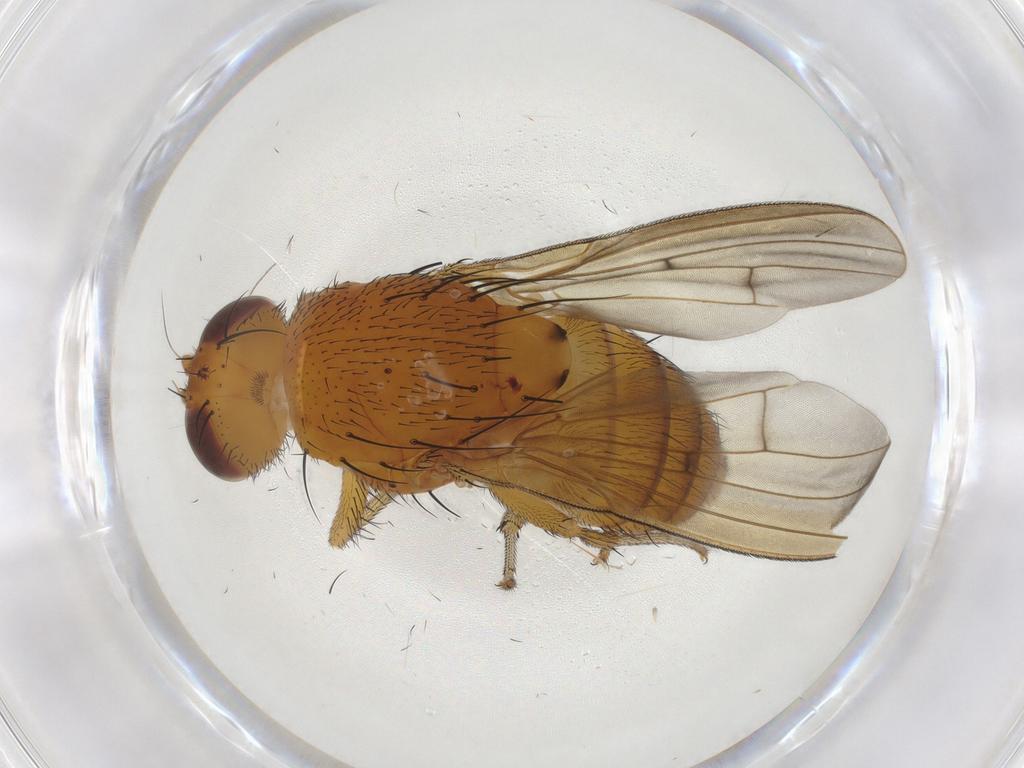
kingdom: Animalia
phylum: Arthropoda
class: Insecta
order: Diptera
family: Cecidomyiidae
